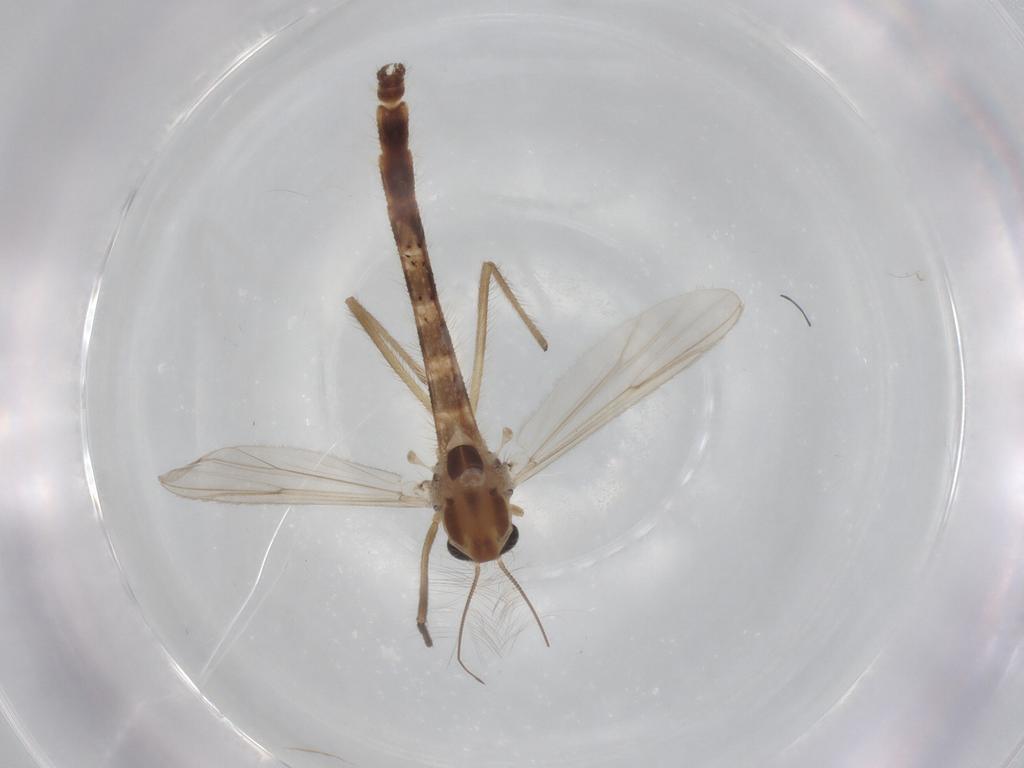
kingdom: Animalia
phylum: Arthropoda
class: Insecta
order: Diptera
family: Chironomidae
